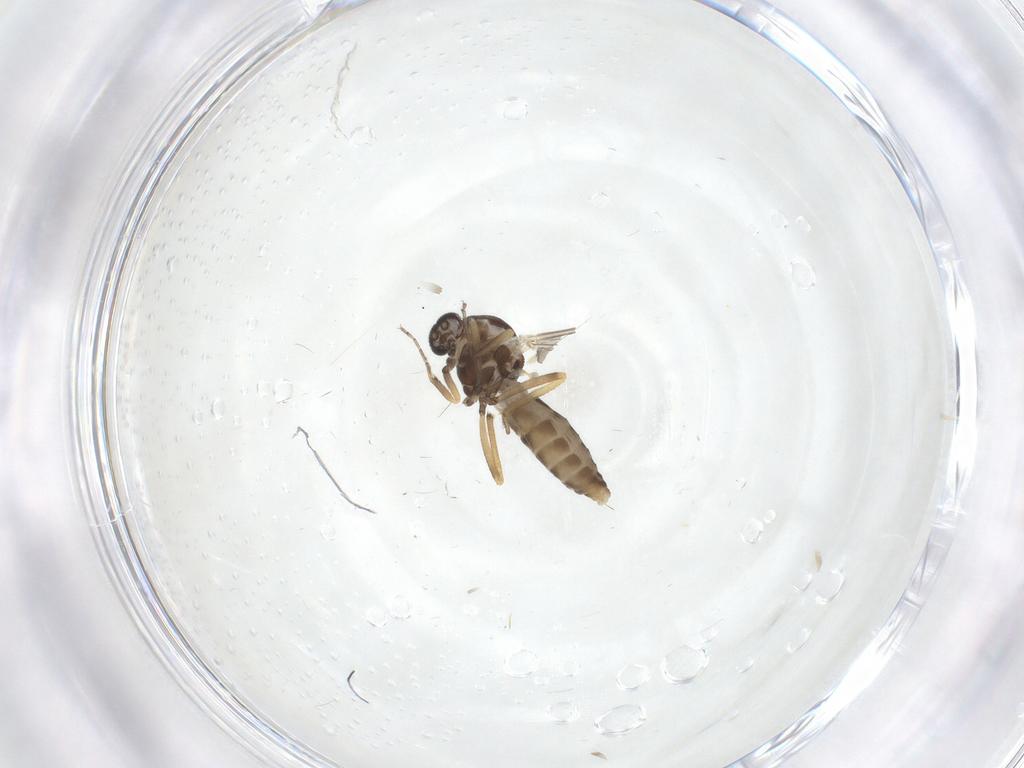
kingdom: Animalia
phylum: Arthropoda
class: Insecta
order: Diptera
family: Ceratopogonidae
